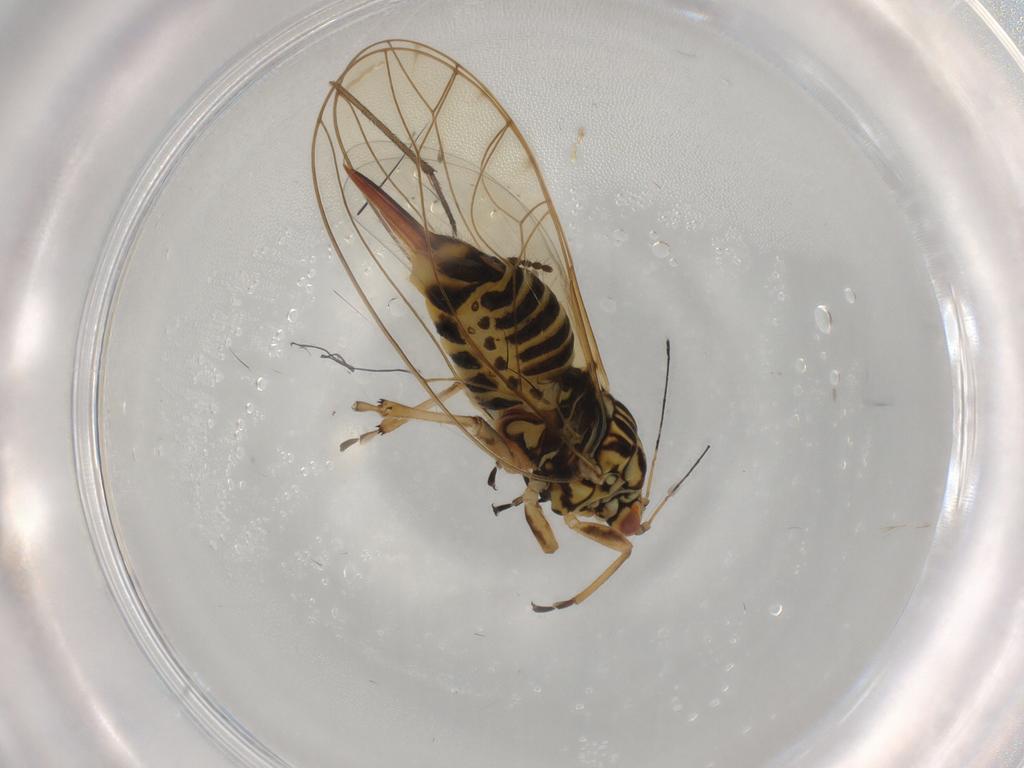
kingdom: Animalia
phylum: Arthropoda
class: Insecta
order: Hemiptera
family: Triozidae
